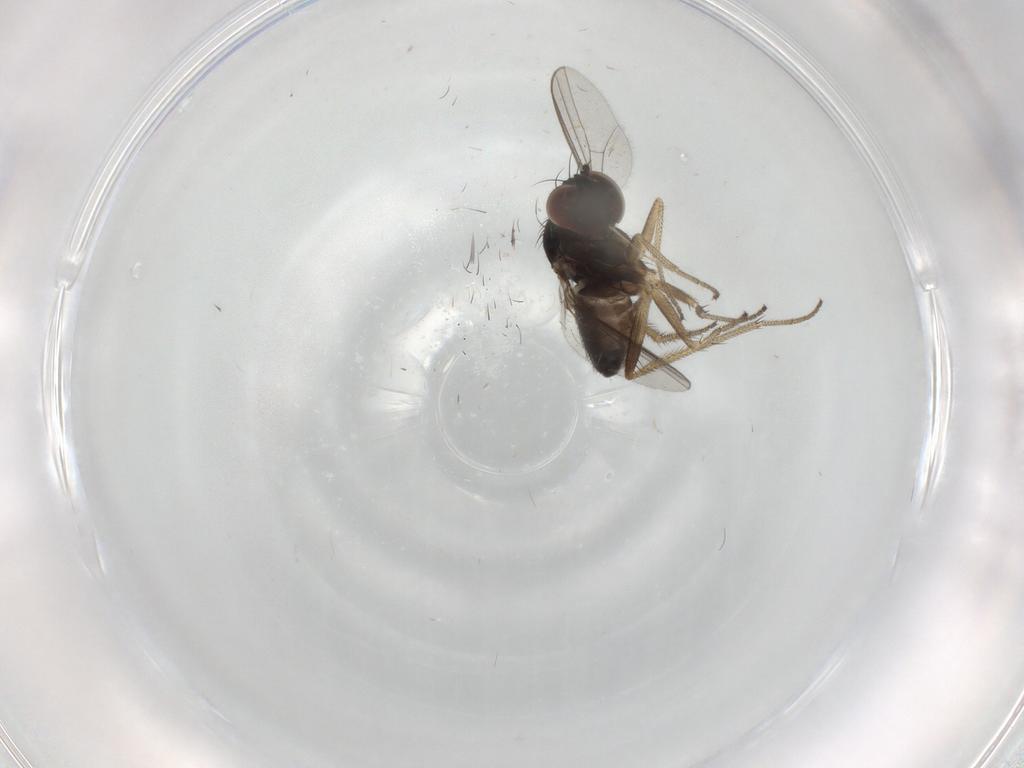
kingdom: Animalia
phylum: Arthropoda
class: Insecta
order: Diptera
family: Dolichopodidae
